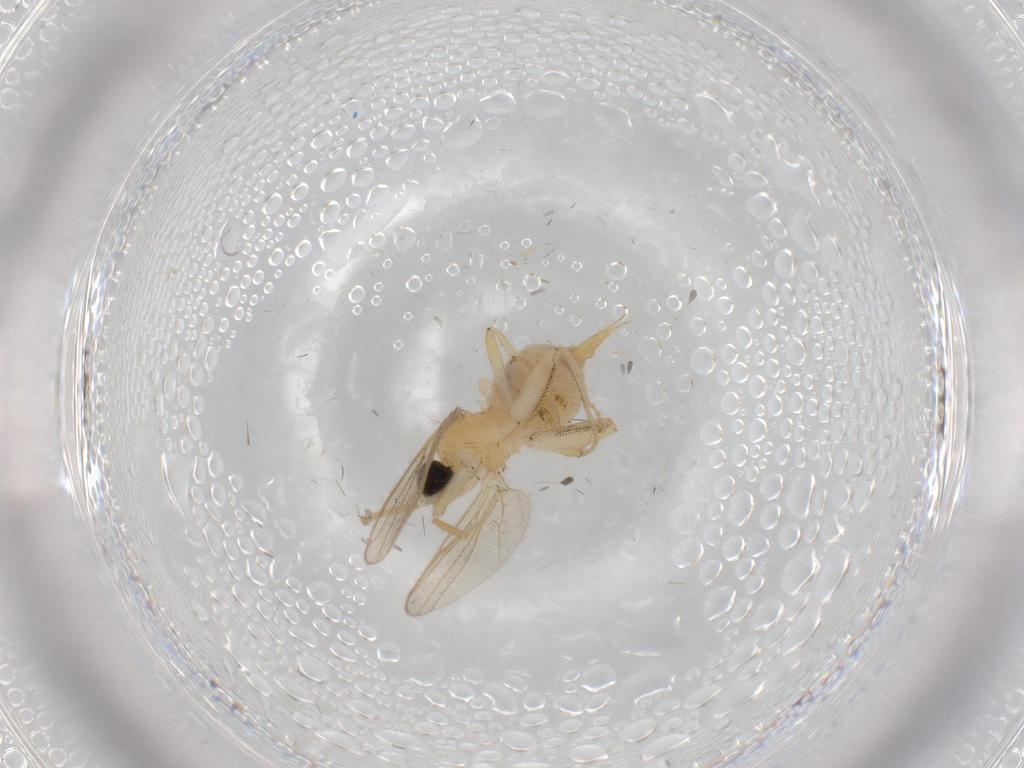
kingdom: Animalia
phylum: Arthropoda
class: Insecta
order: Diptera
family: Hybotidae
